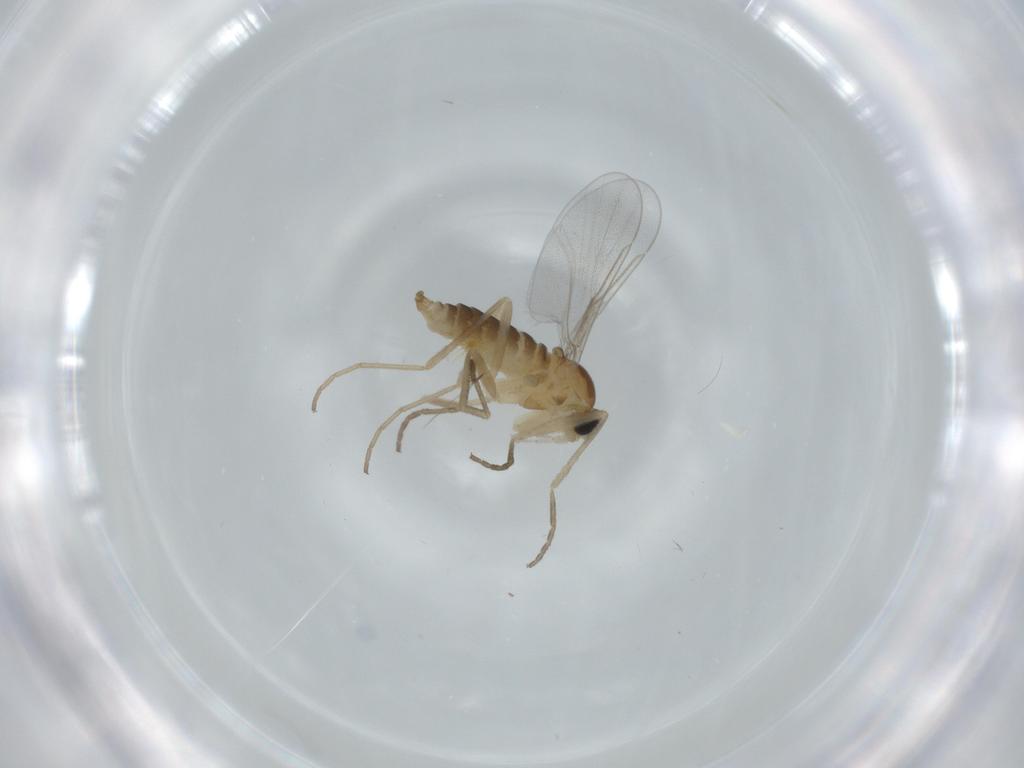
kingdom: Animalia
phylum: Arthropoda
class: Insecta
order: Diptera
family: Cecidomyiidae
